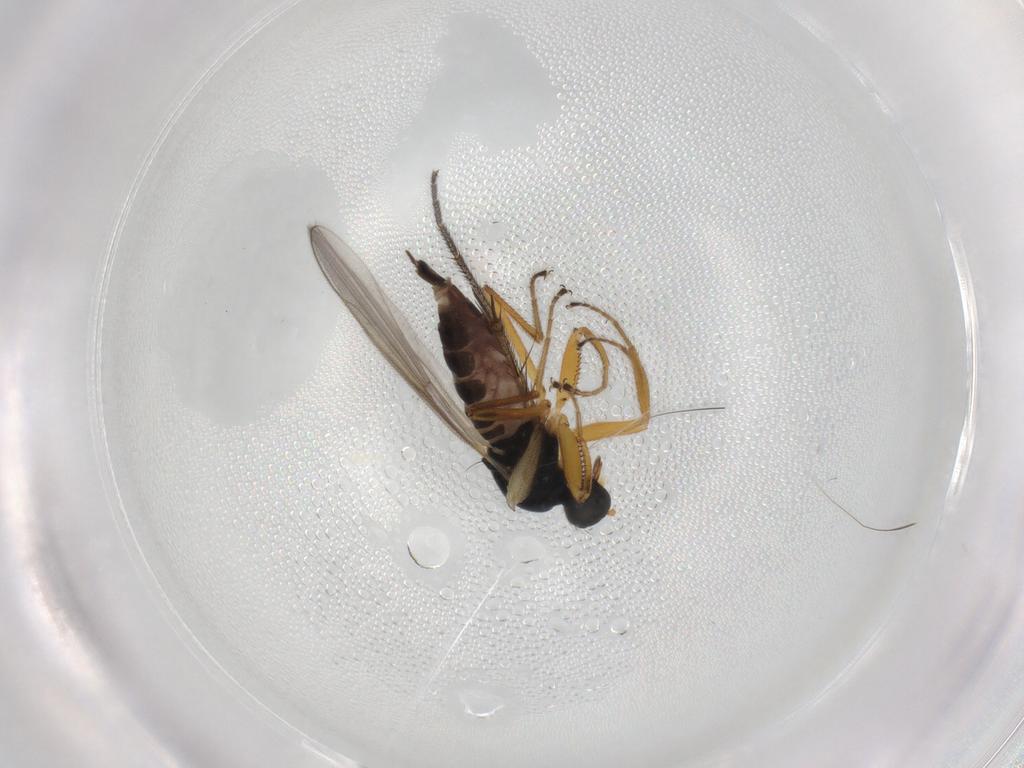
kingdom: Animalia
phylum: Arthropoda
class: Insecta
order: Diptera
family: Hybotidae
